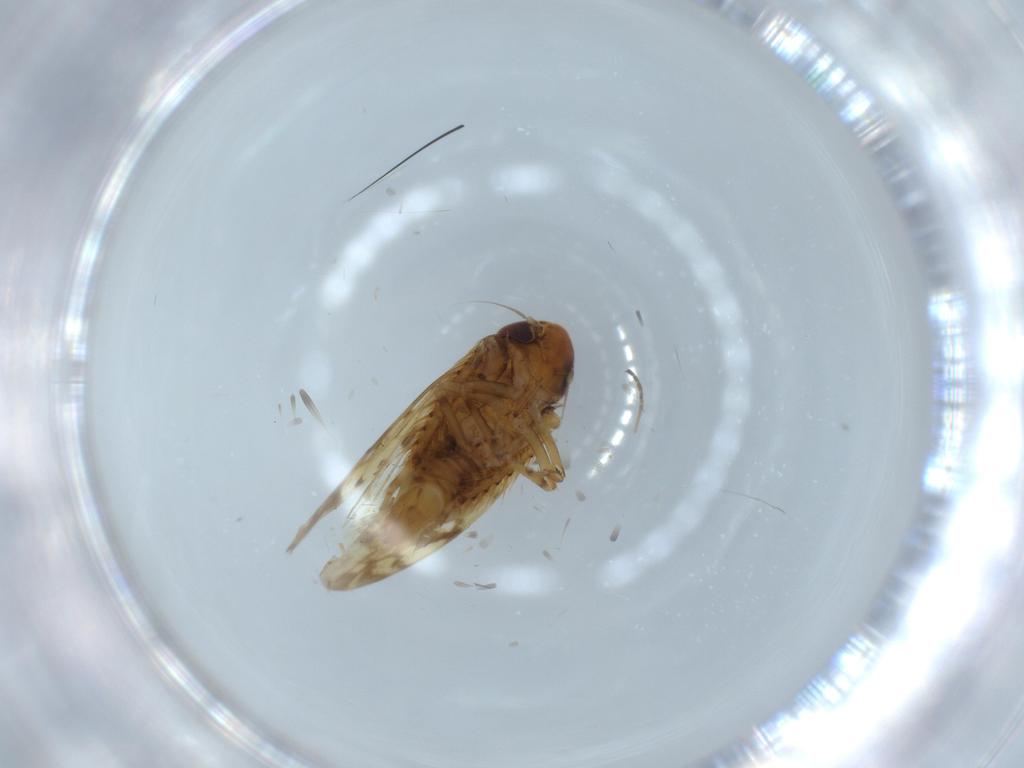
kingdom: Animalia
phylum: Arthropoda
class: Insecta
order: Hemiptera
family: Cicadellidae
